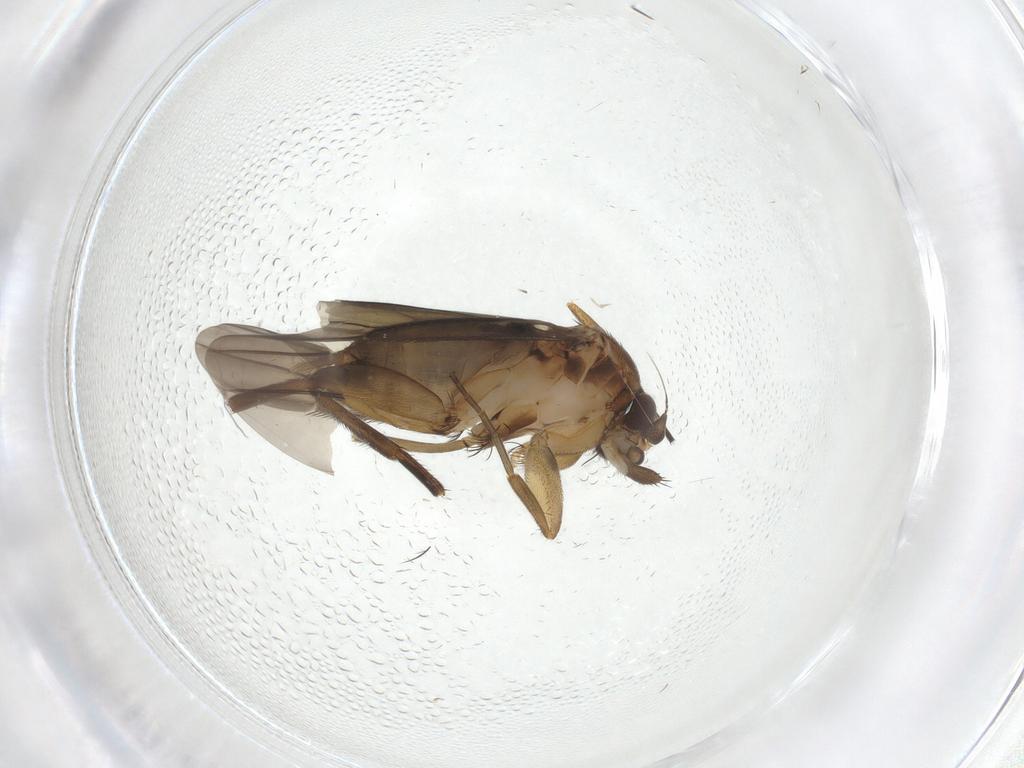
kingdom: Animalia
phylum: Arthropoda
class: Insecta
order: Diptera
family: Phoridae
